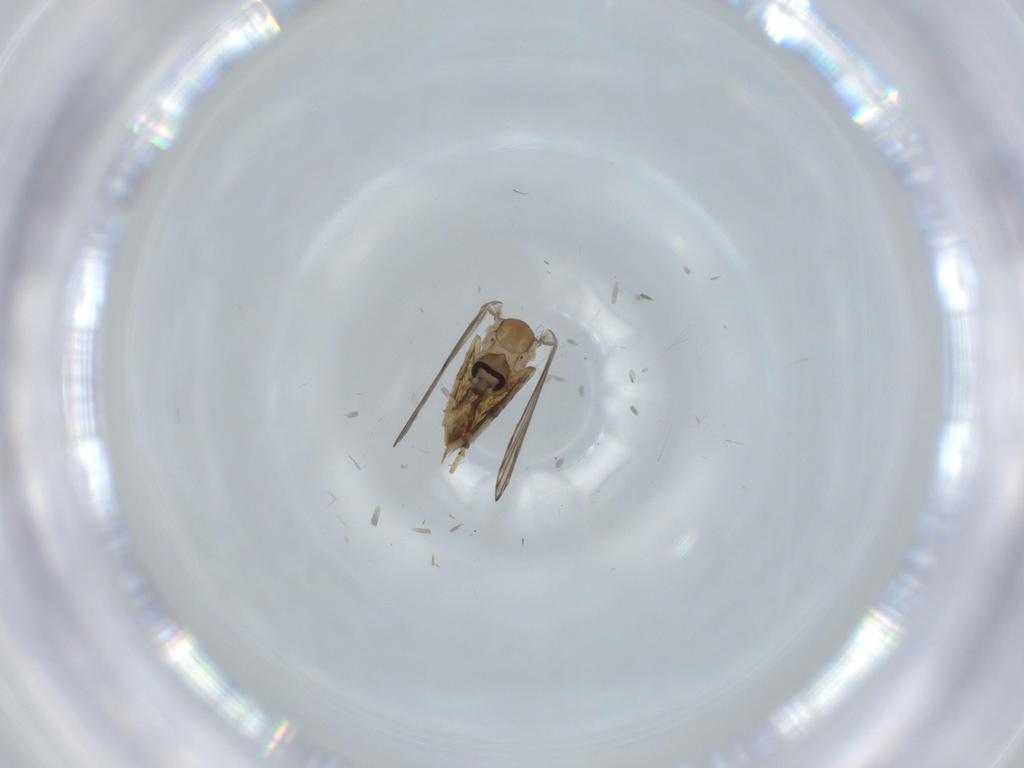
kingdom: Animalia
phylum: Arthropoda
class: Insecta
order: Diptera
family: Psychodidae
